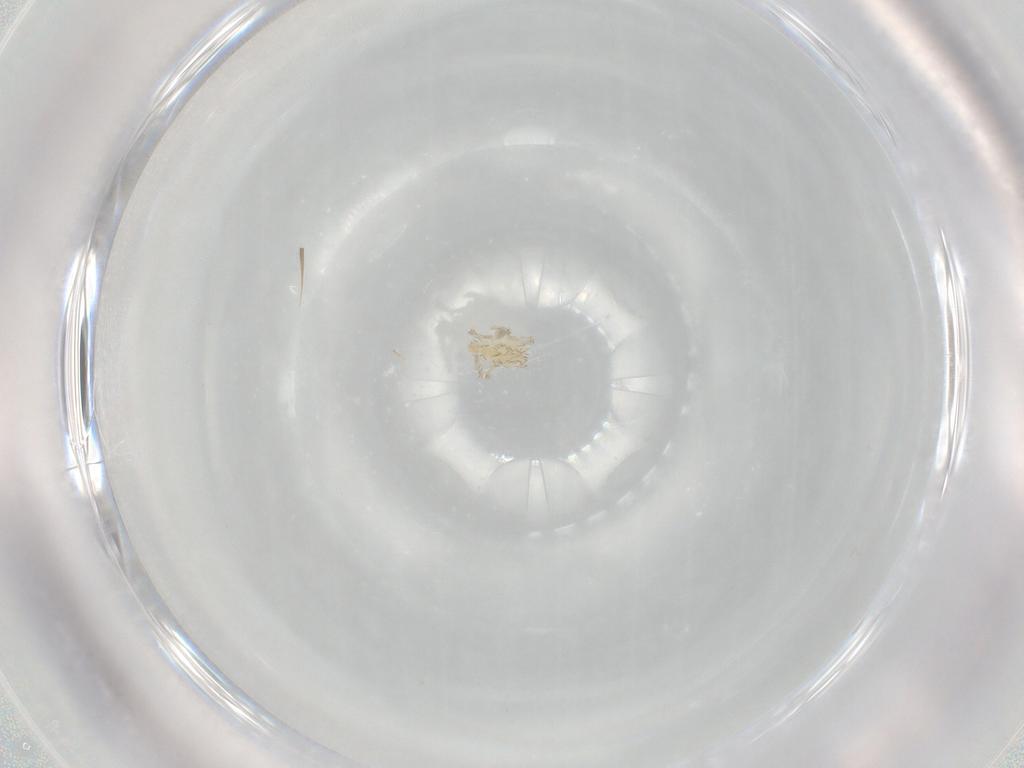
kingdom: Animalia
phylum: Arthropoda
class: Arachnida
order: Trombidiformes
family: Erythraeidae
